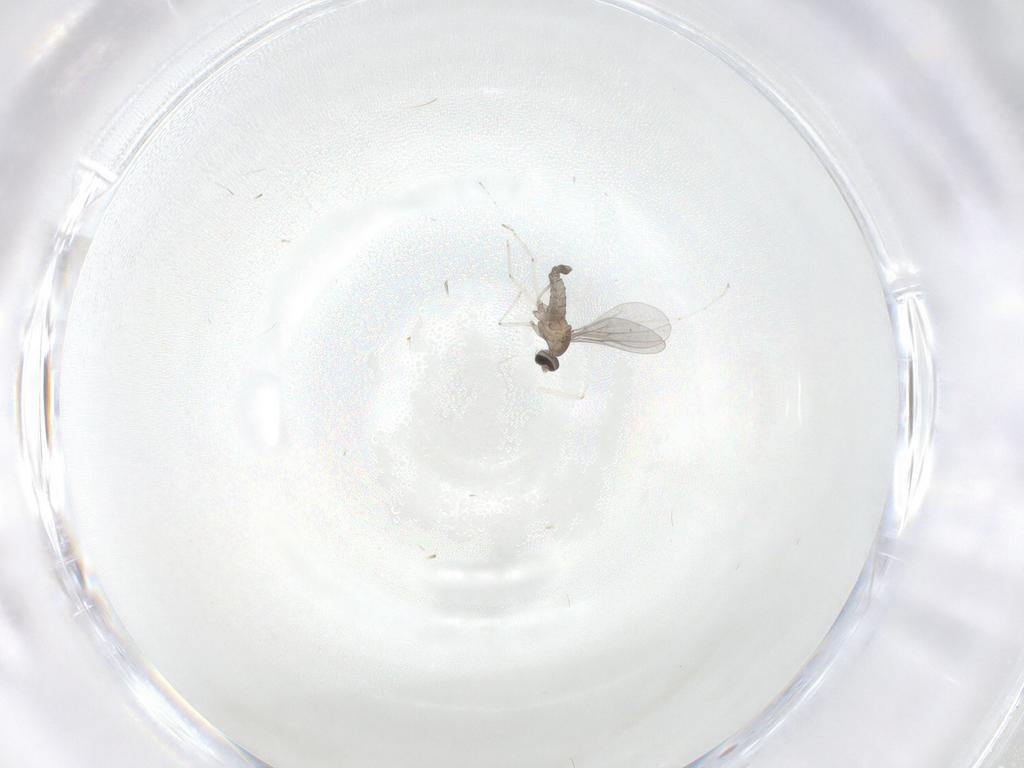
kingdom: Animalia
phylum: Arthropoda
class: Insecta
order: Diptera
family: Cecidomyiidae
